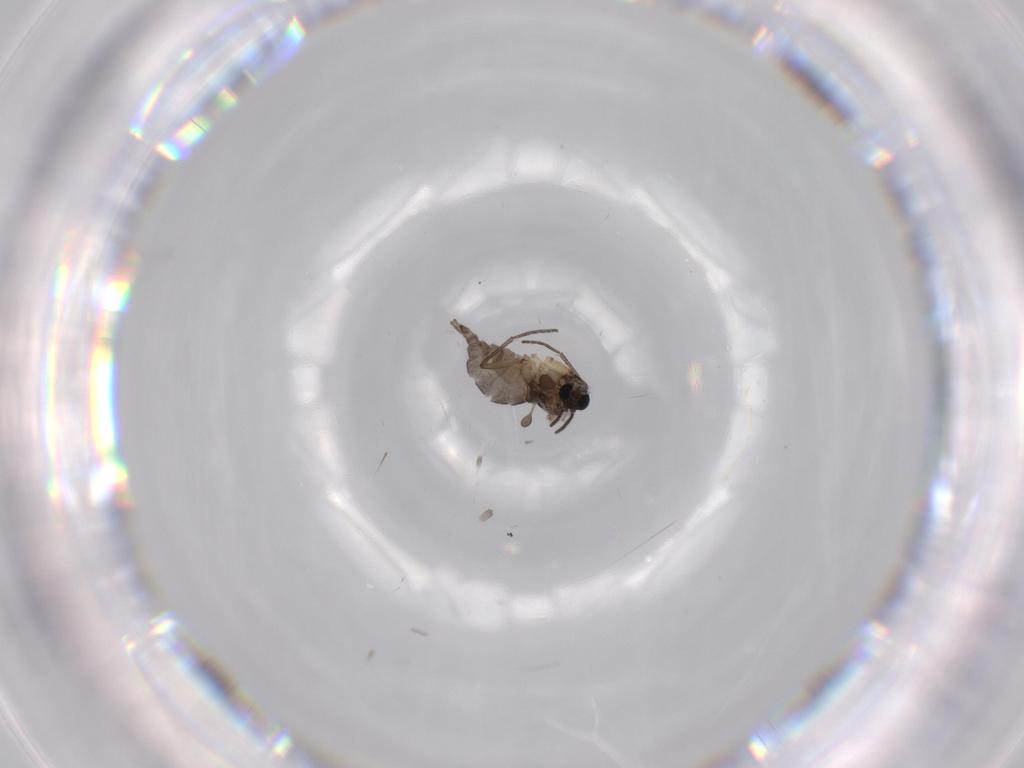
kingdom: Animalia
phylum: Arthropoda
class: Insecta
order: Diptera
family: Sciaridae
